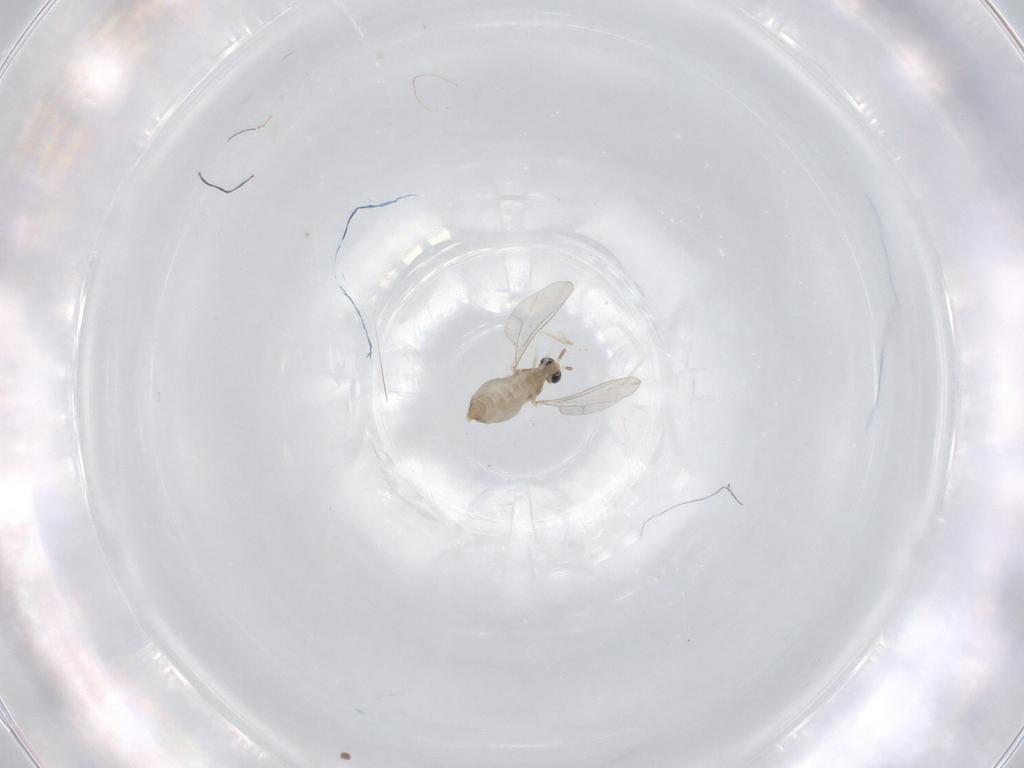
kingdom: Animalia
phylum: Arthropoda
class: Insecta
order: Diptera
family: Cecidomyiidae
